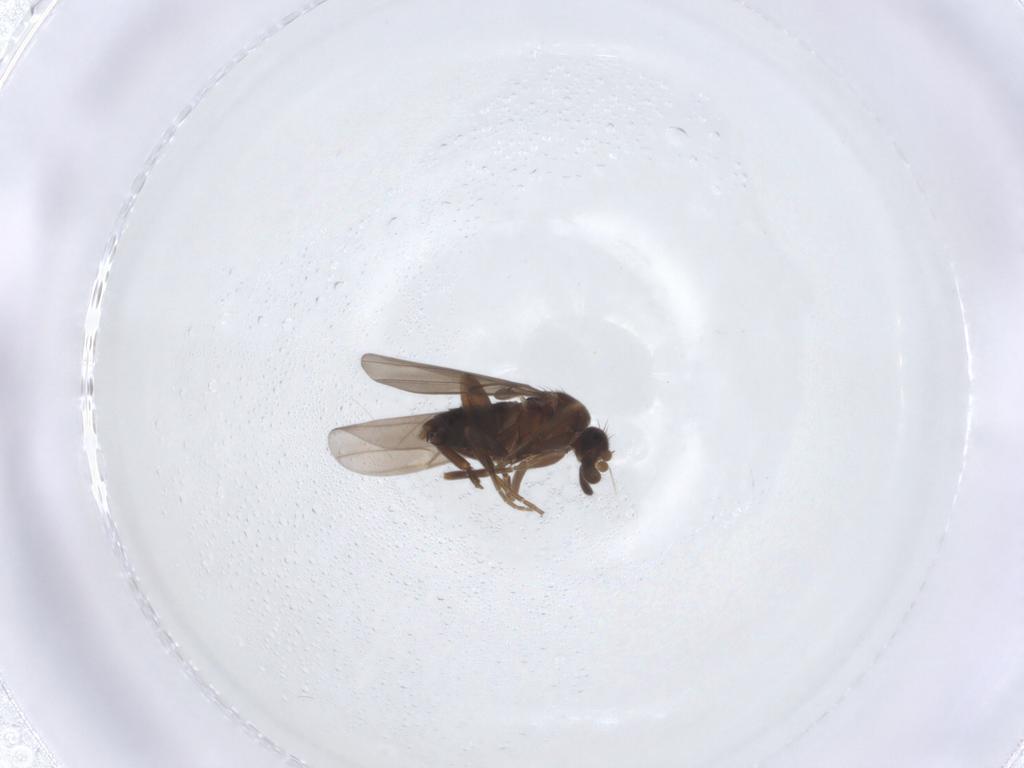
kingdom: Animalia
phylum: Arthropoda
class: Insecta
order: Diptera
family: Phoridae
